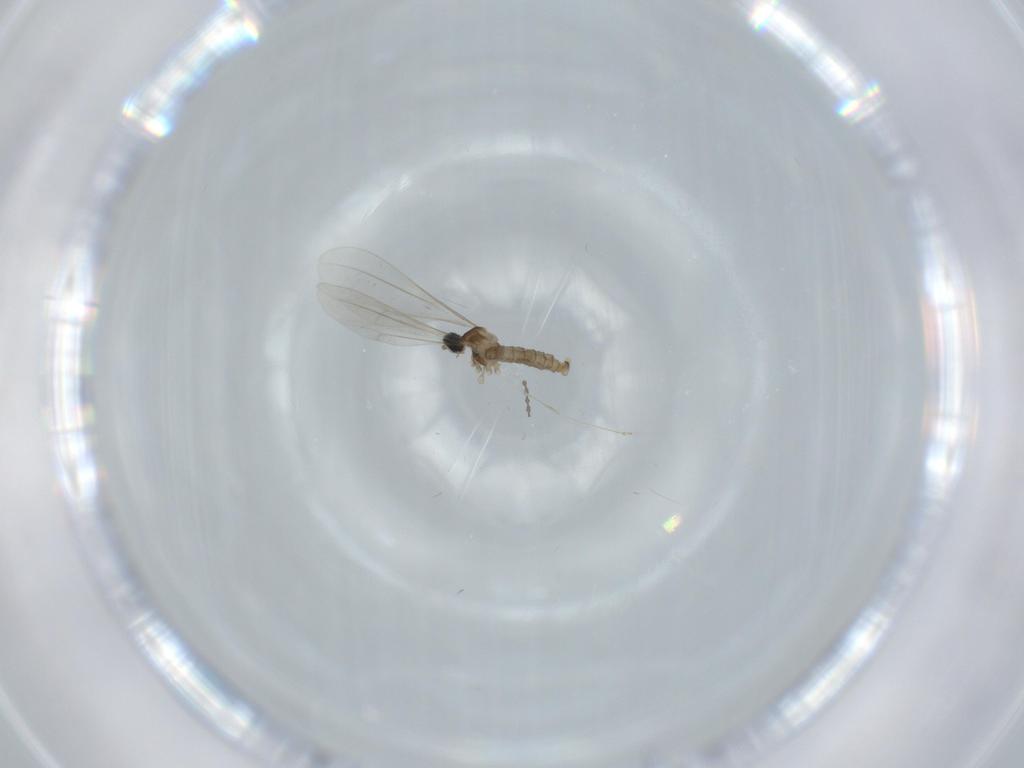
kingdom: Animalia
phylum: Arthropoda
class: Insecta
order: Diptera
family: Cecidomyiidae
